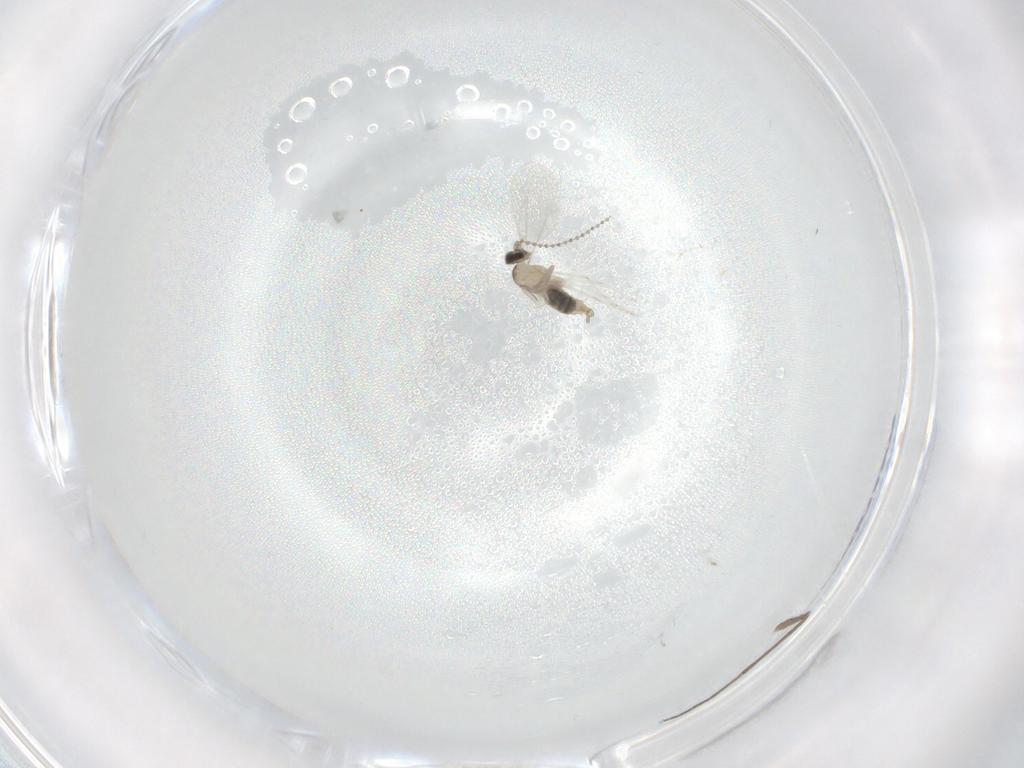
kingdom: Animalia
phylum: Arthropoda
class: Insecta
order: Diptera
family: Chironomidae
